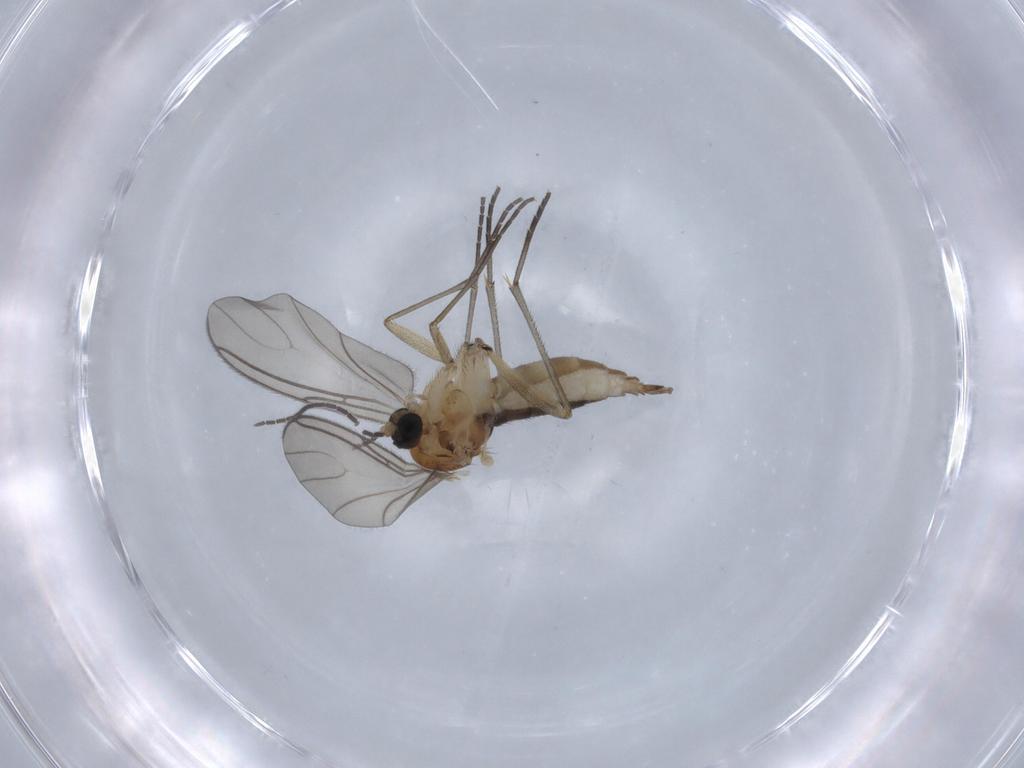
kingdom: Animalia
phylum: Arthropoda
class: Insecta
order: Diptera
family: Sciaridae
